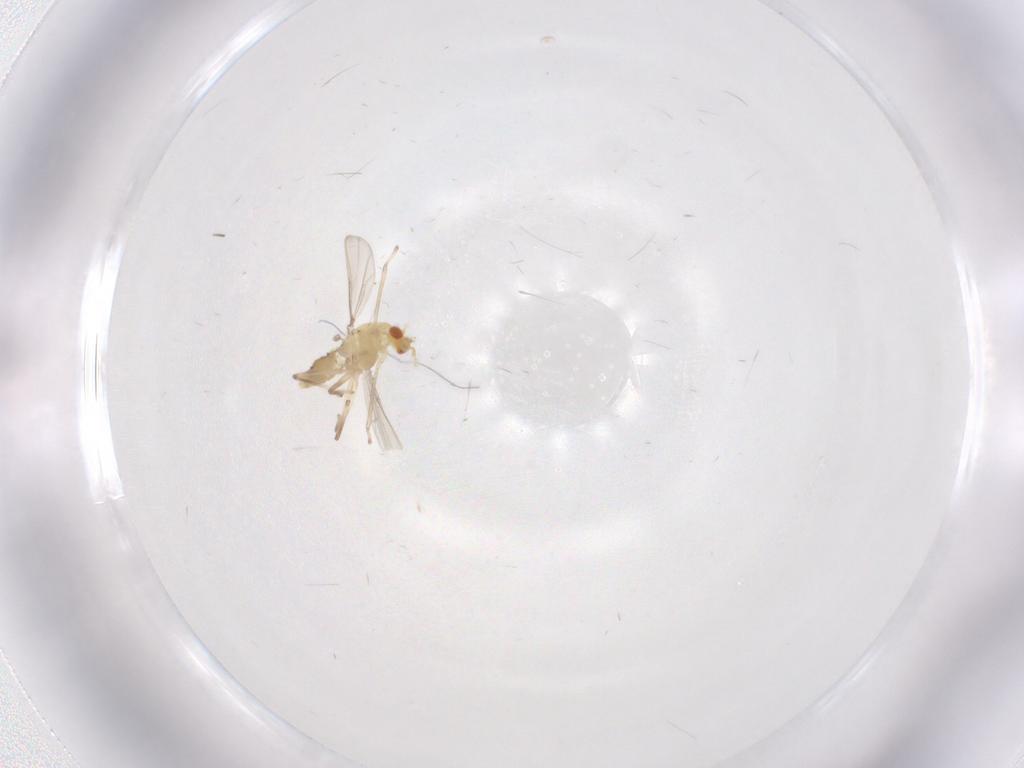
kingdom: Animalia
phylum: Arthropoda
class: Insecta
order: Diptera
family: Chironomidae
